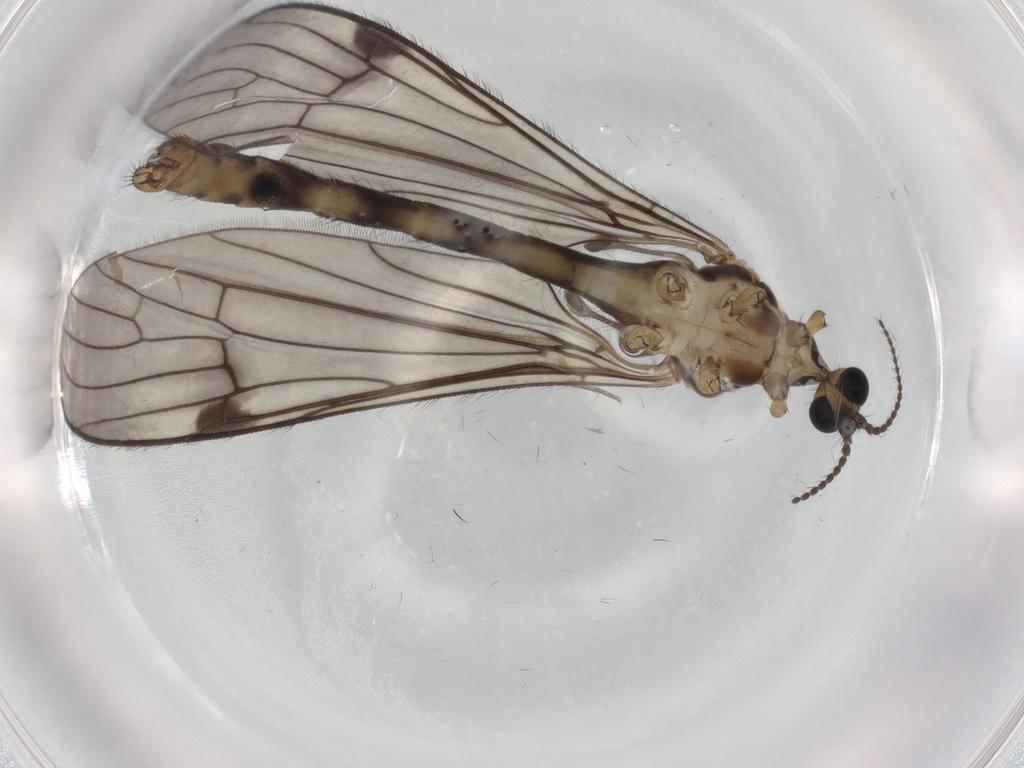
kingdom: Animalia
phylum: Arthropoda
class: Insecta
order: Diptera
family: Limoniidae
